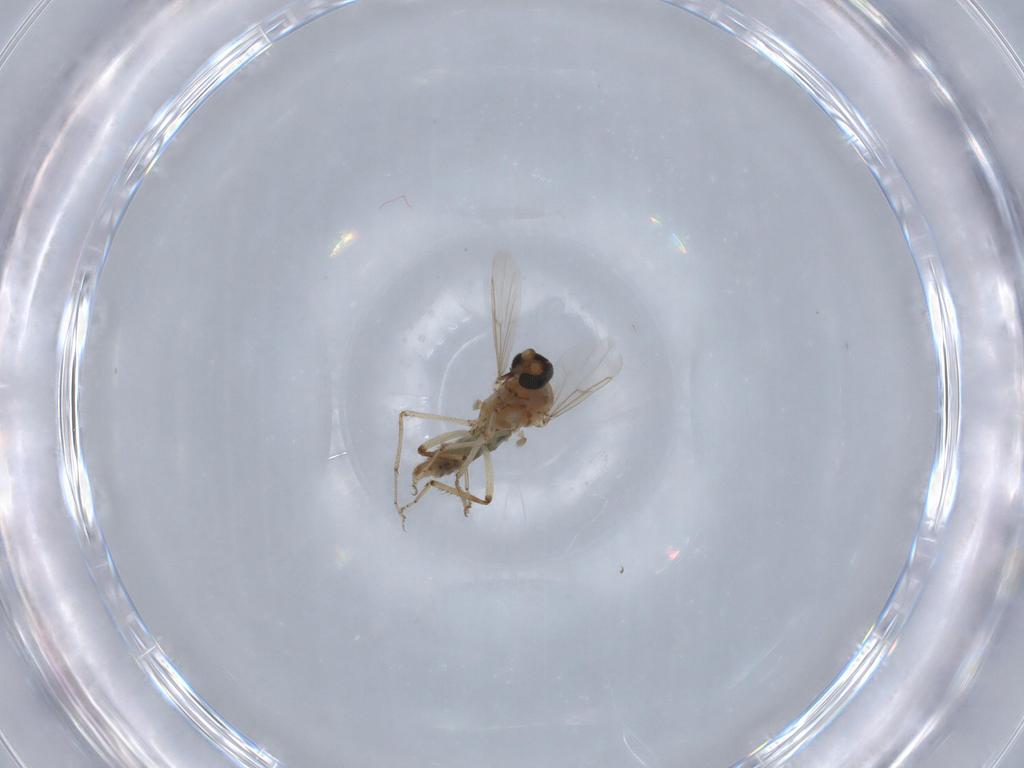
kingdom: Animalia
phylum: Arthropoda
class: Insecta
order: Diptera
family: Ceratopogonidae
